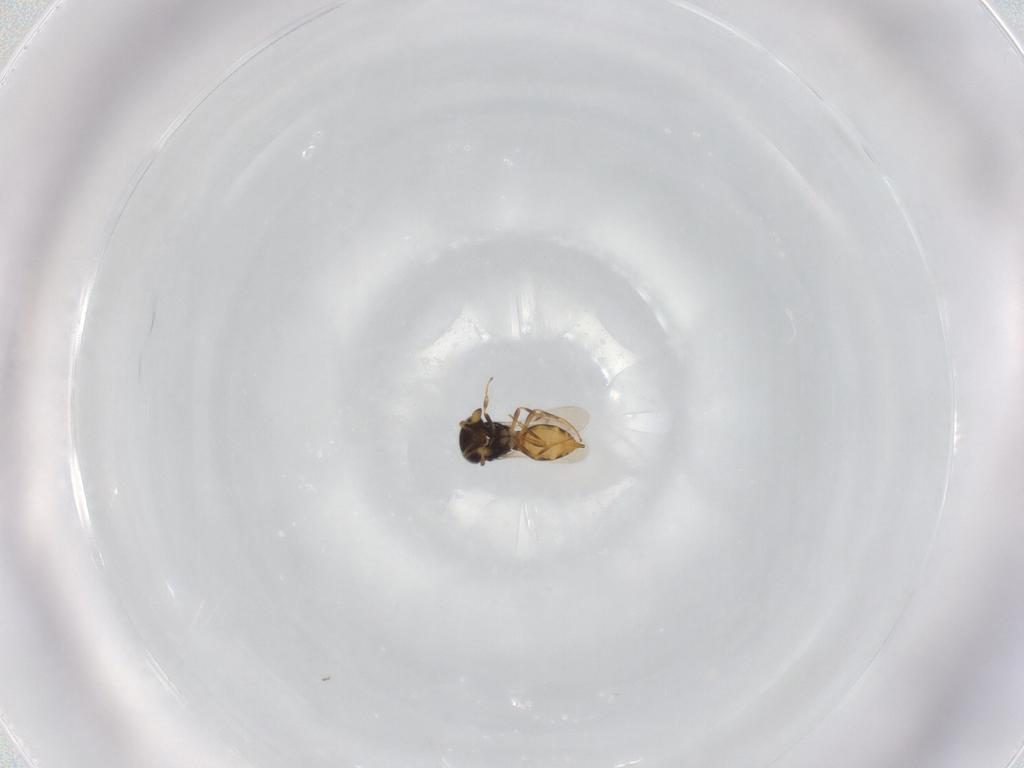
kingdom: Animalia
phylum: Arthropoda
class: Insecta
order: Hymenoptera
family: Scelionidae
